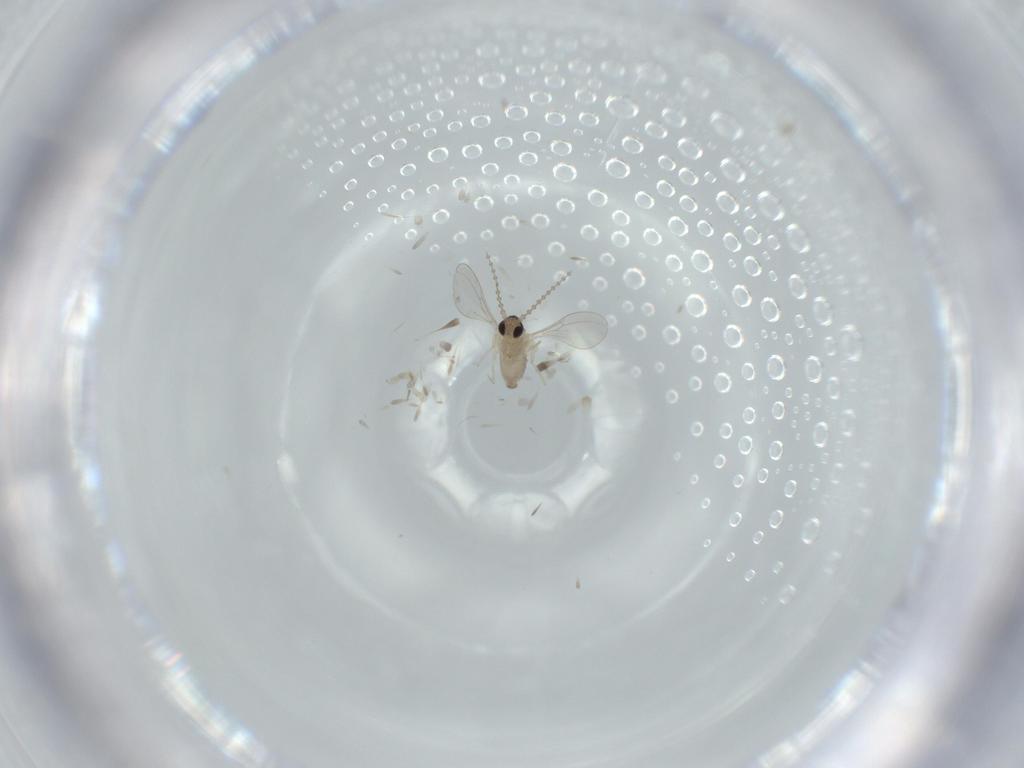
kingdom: Animalia
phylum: Arthropoda
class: Insecta
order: Diptera
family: Cecidomyiidae
